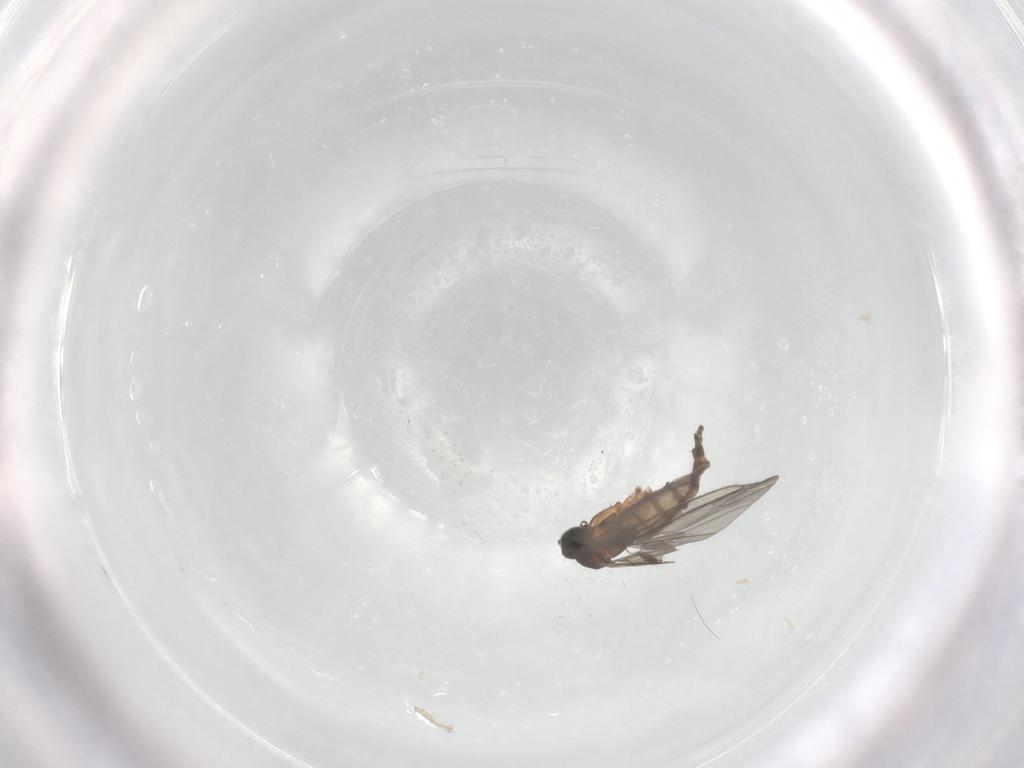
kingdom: Animalia
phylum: Arthropoda
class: Insecta
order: Diptera
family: Sciaridae
